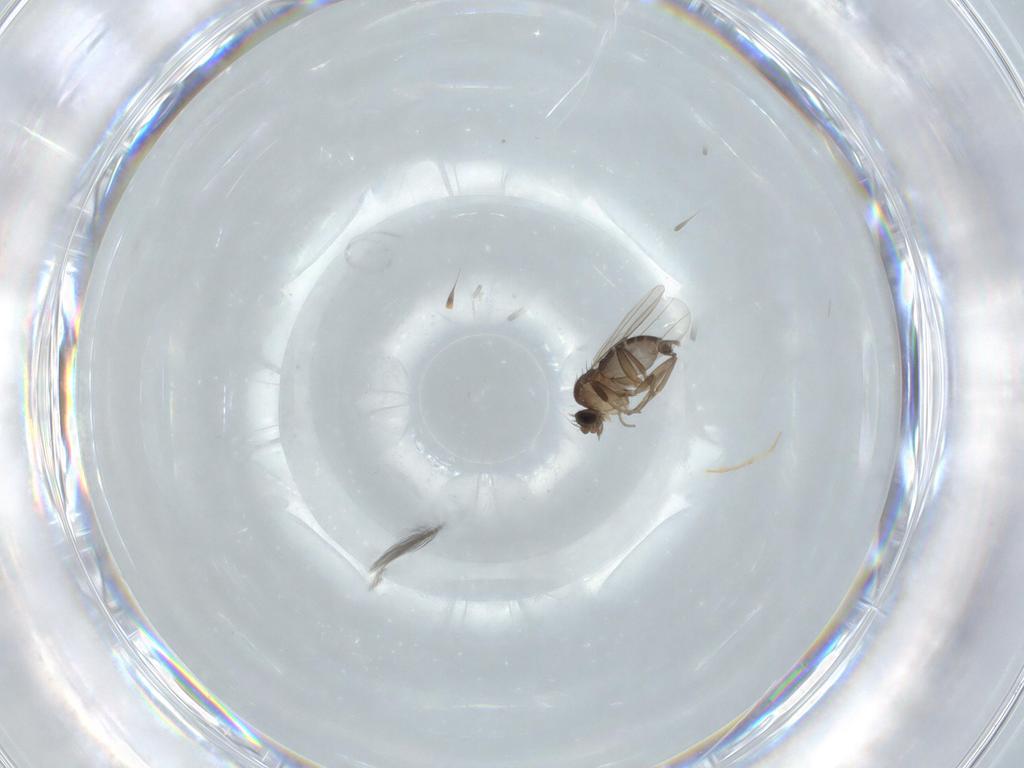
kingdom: Animalia
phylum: Arthropoda
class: Insecta
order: Diptera
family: Phoridae
